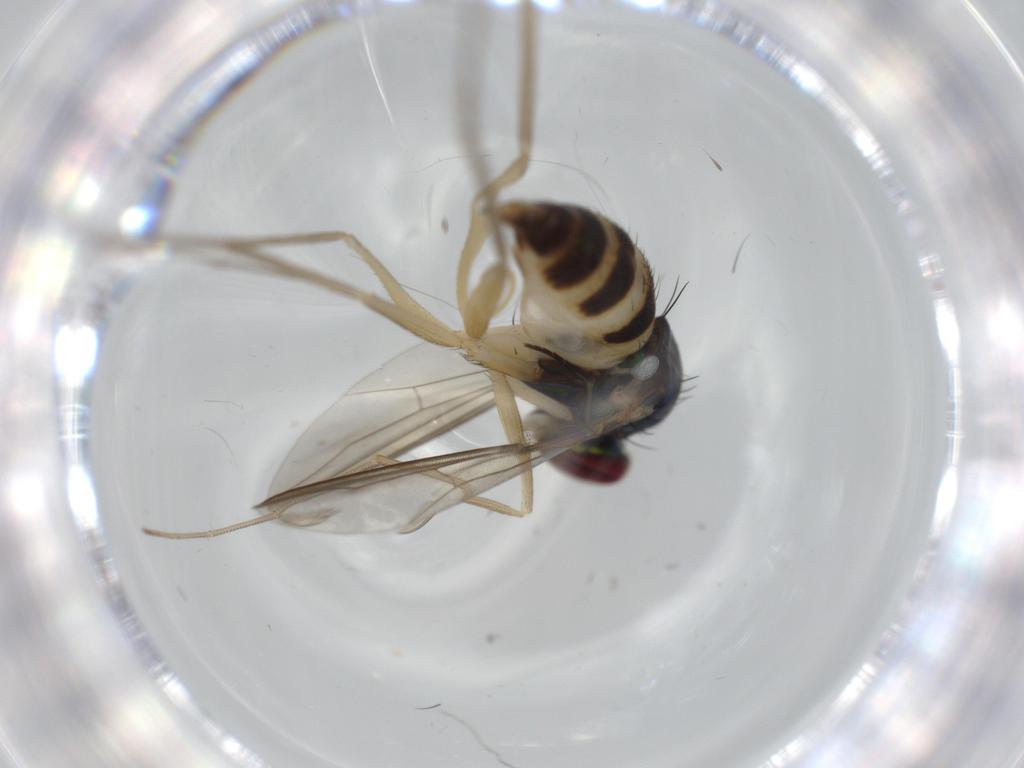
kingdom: Animalia
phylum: Arthropoda
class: Insecta
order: Diptera
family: Dolichopodidae
